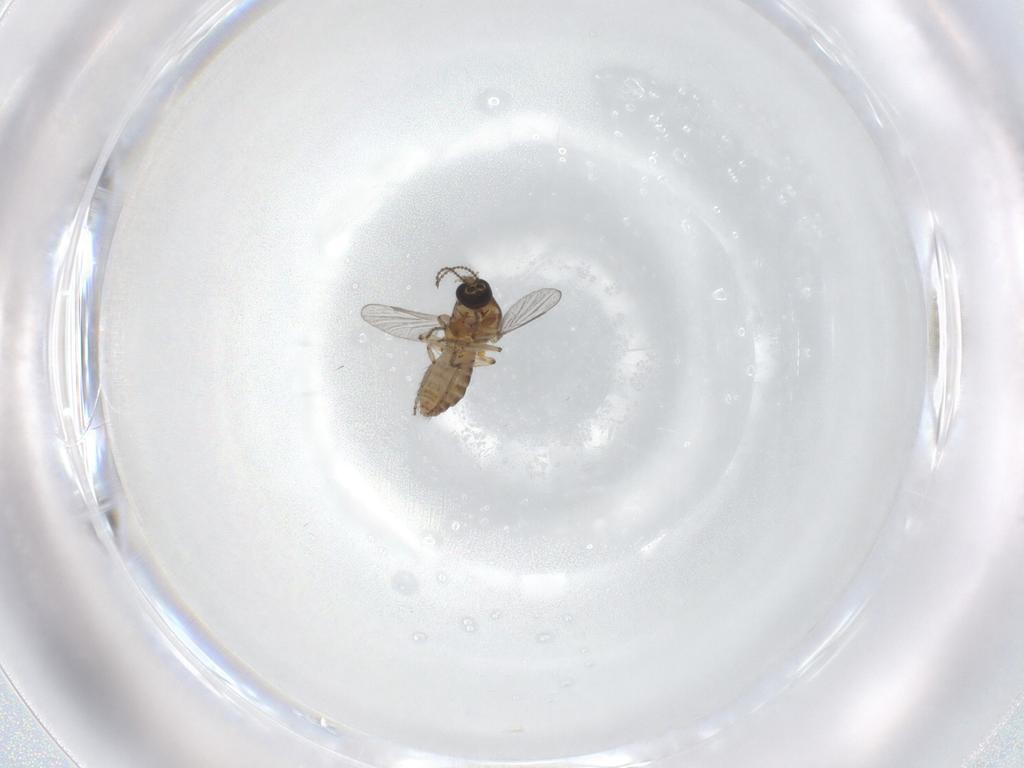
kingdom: Animalia
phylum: Arthropoda
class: Insecta
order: Diptera
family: Ceratopogonidae
